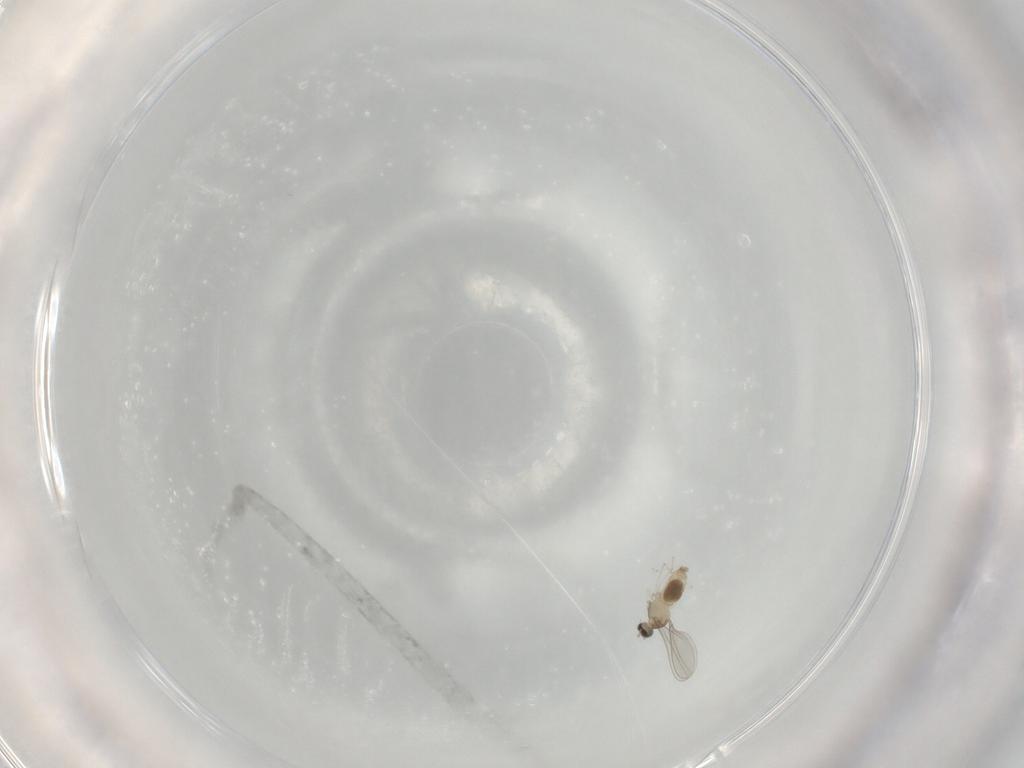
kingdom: Animalia
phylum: Arthropoda
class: Insecta
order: Diptera
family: Cecidomyiidae
